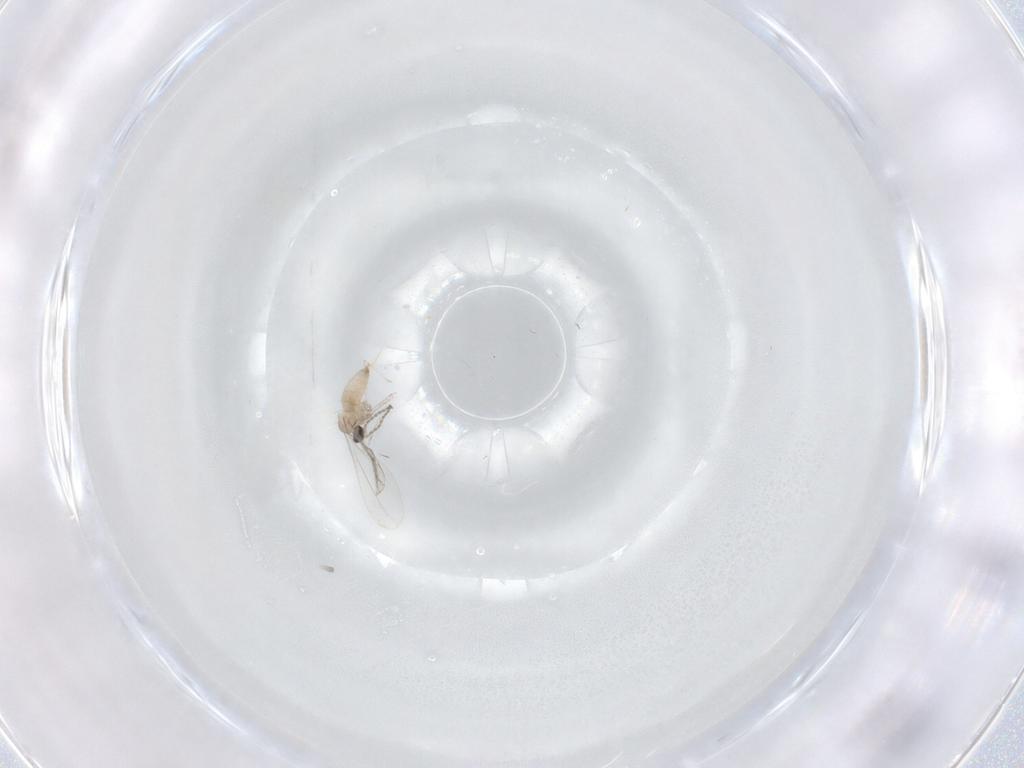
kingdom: Animalia
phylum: Arthropoda
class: Insecta
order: Diptera
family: Cecidomyiidae
